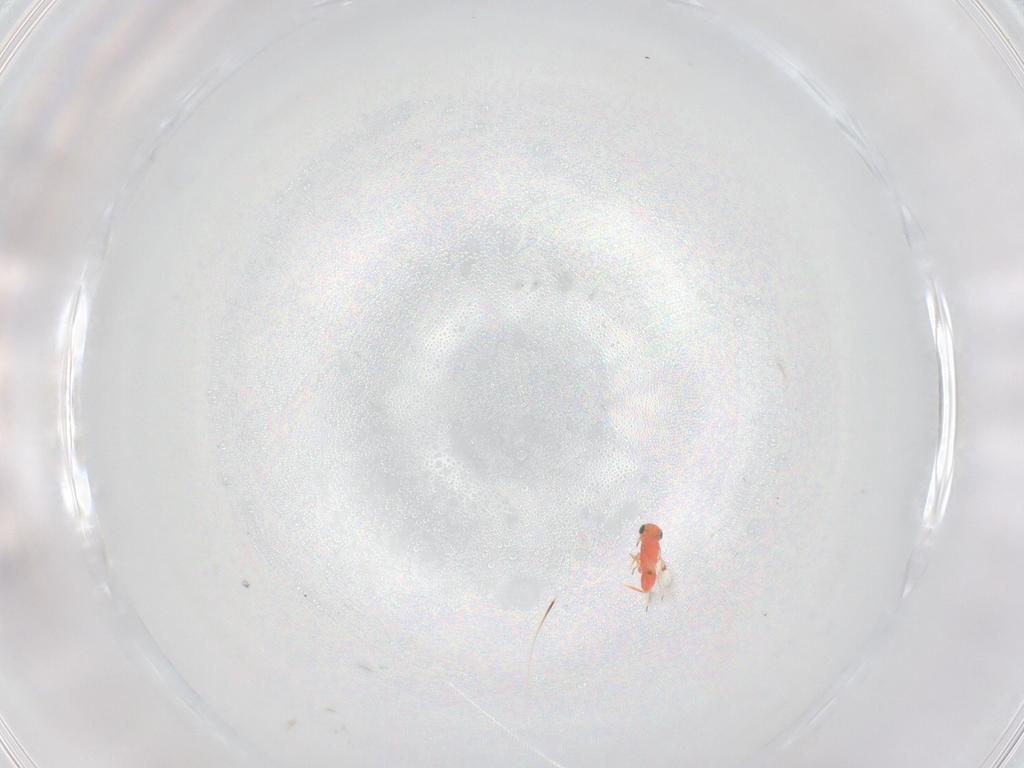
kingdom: Animalia
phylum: Arthropoda
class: Insecta
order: Hymenoptera
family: Trichogrammatidae
